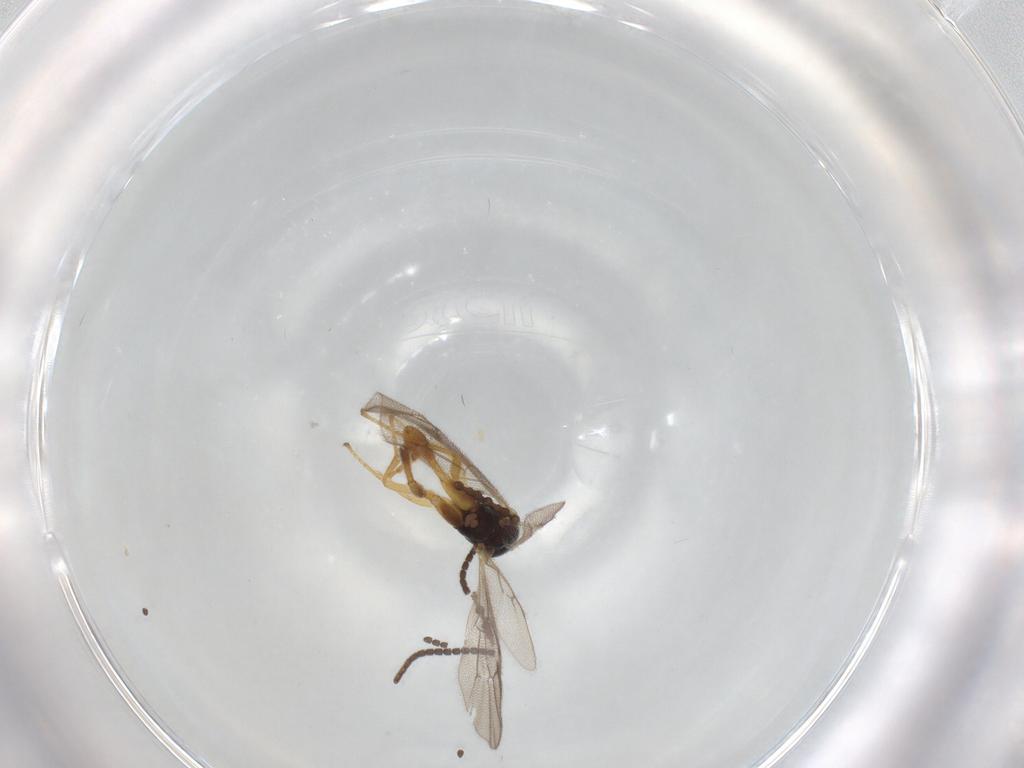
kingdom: Animalia
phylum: Arthropoda
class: Insecta
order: Hymenoptera
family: Ichneumonidae
